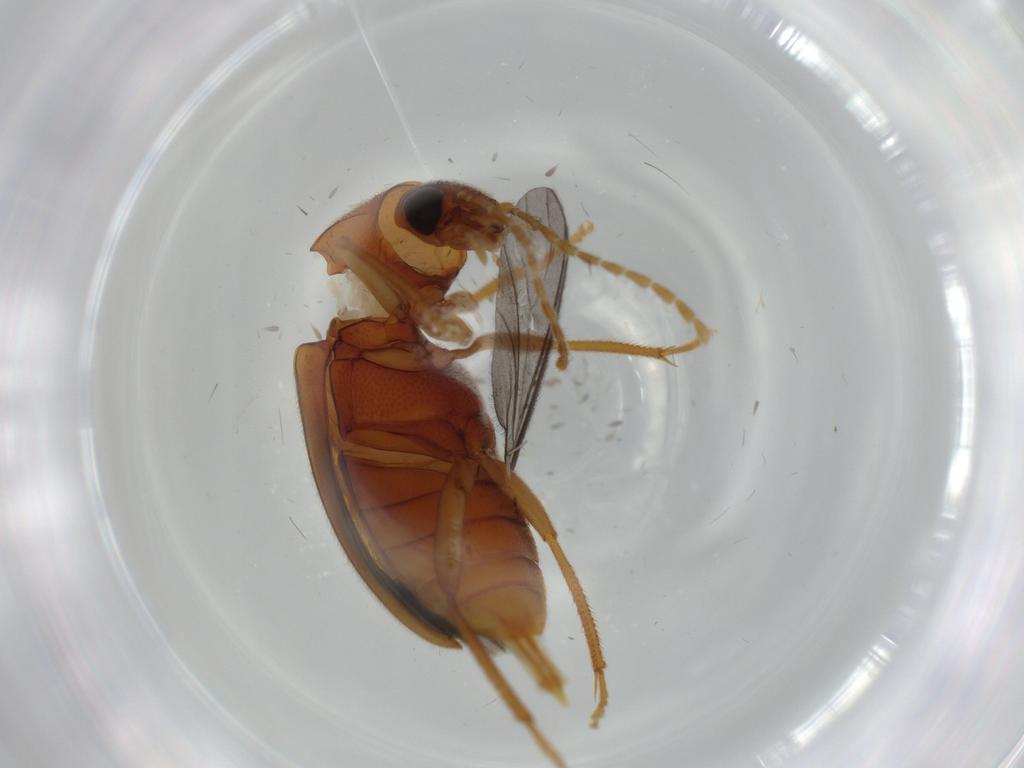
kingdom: Animalia
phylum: Arthropoda
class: Insecta
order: Coleoptera
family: Ptilodactylidae
